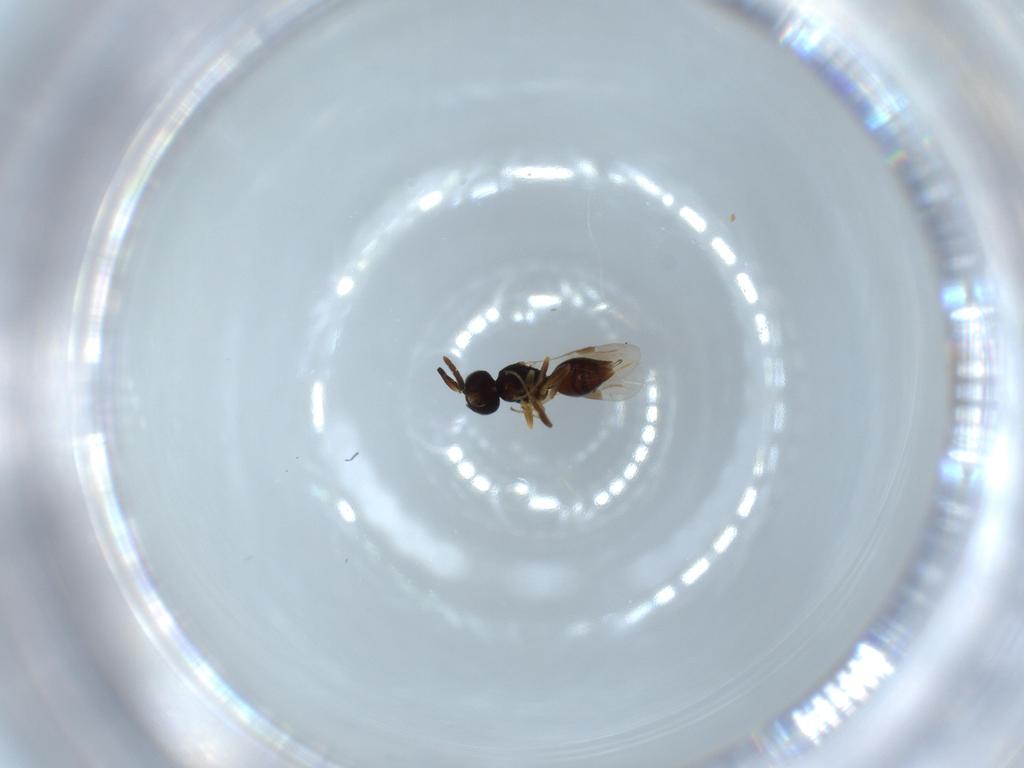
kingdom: Animalia
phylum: Arthropoda
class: Insecta
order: Hymenoptera
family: Megaspilidae
